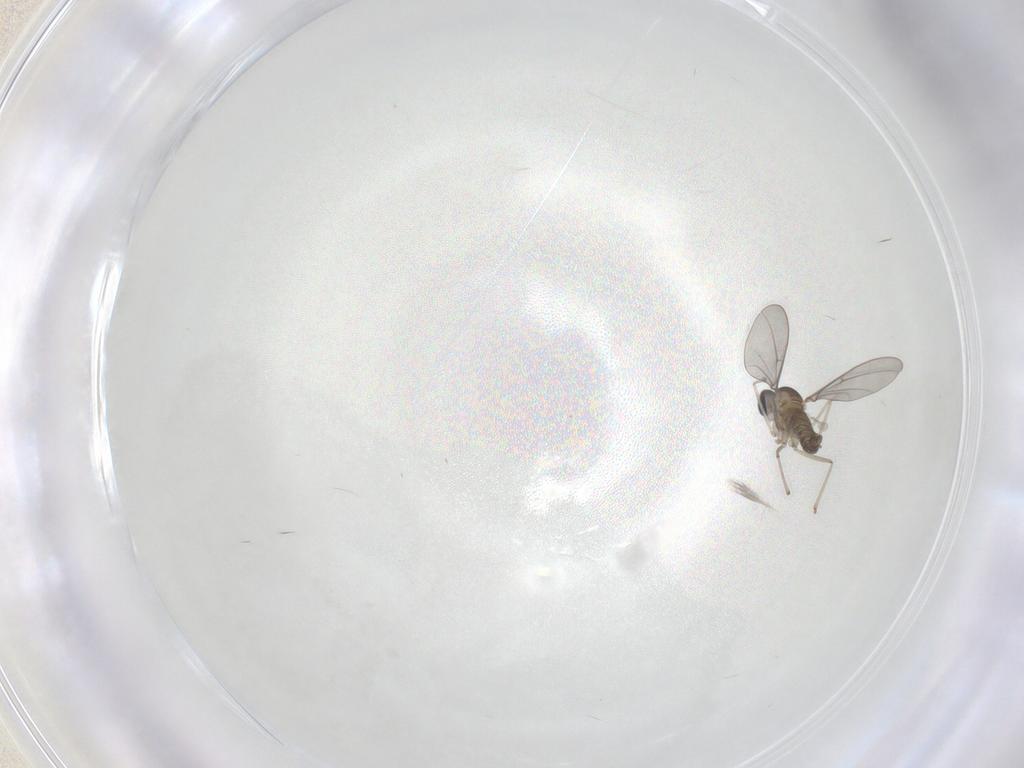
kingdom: Animalia
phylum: Arthropoda
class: Insecta
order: Diptera
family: Cecidomyiidae
